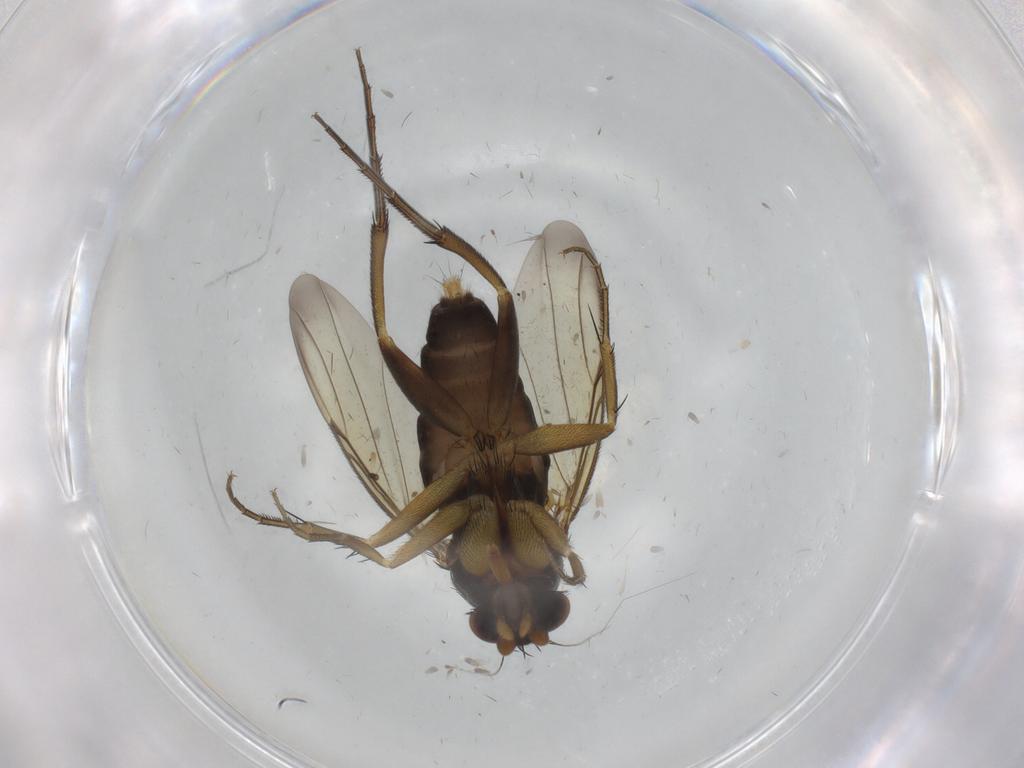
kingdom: Animalia
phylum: Arthropoda
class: Insecta
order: Diptera
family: Phoridae
